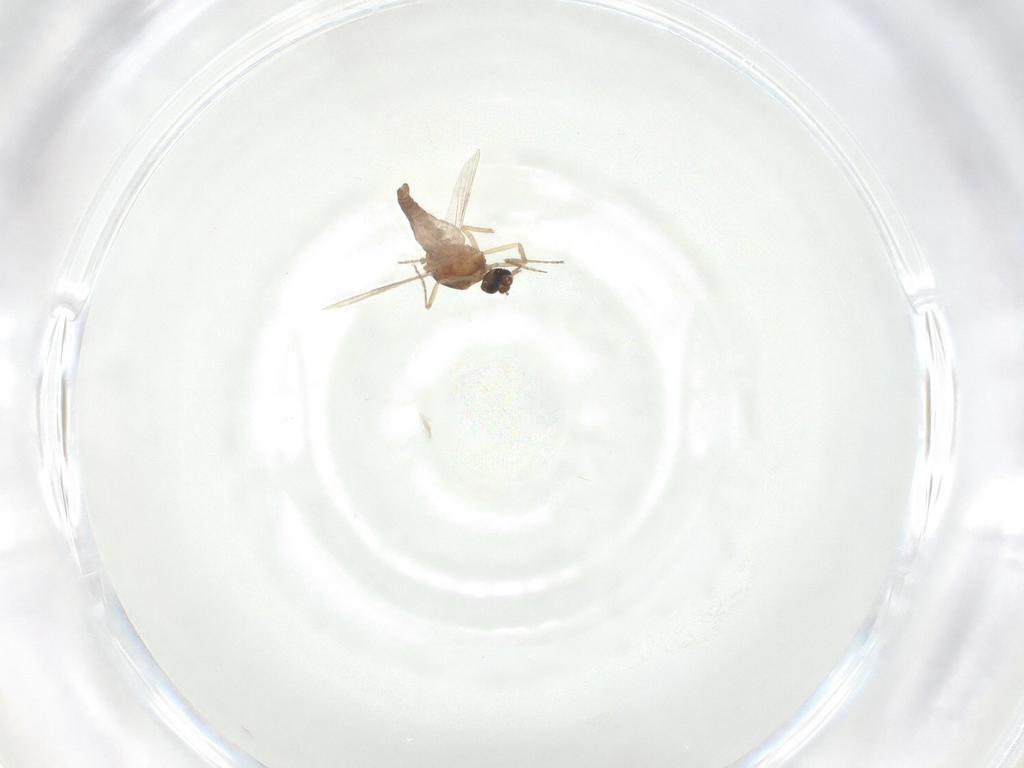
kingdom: Animalia
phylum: Arthropoda
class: Insecta
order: Diptera
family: Ceratopogonidae
